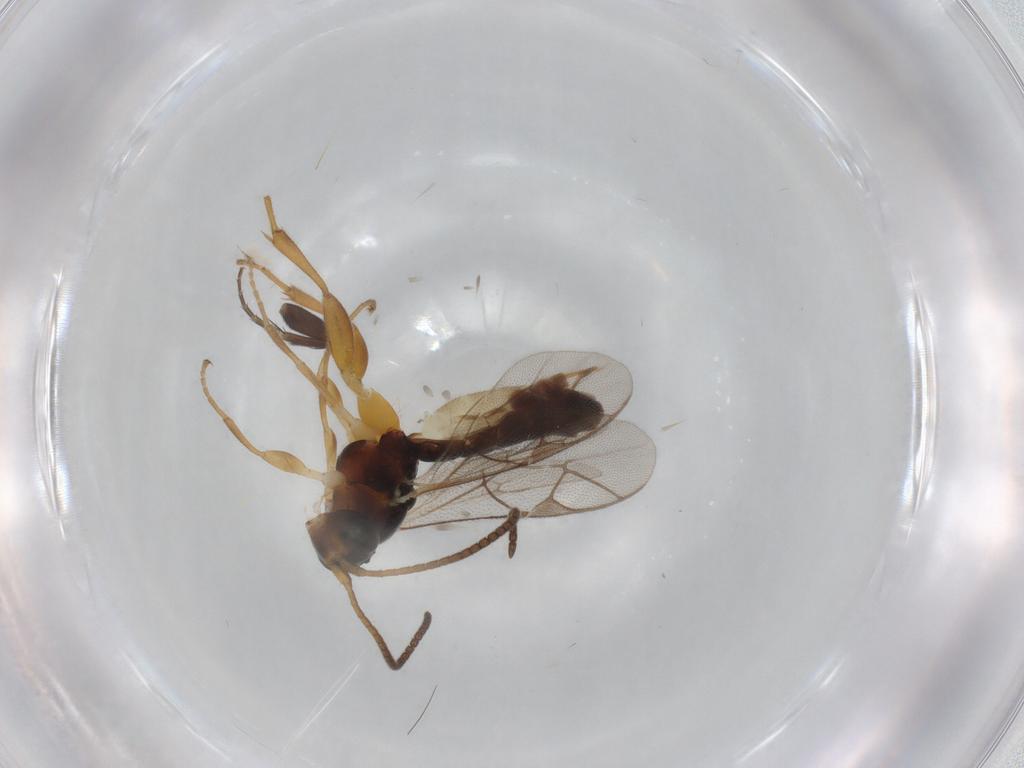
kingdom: Animalia
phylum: Arthropoda
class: Insecta
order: Hymenoptera
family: Ichneumonidae
